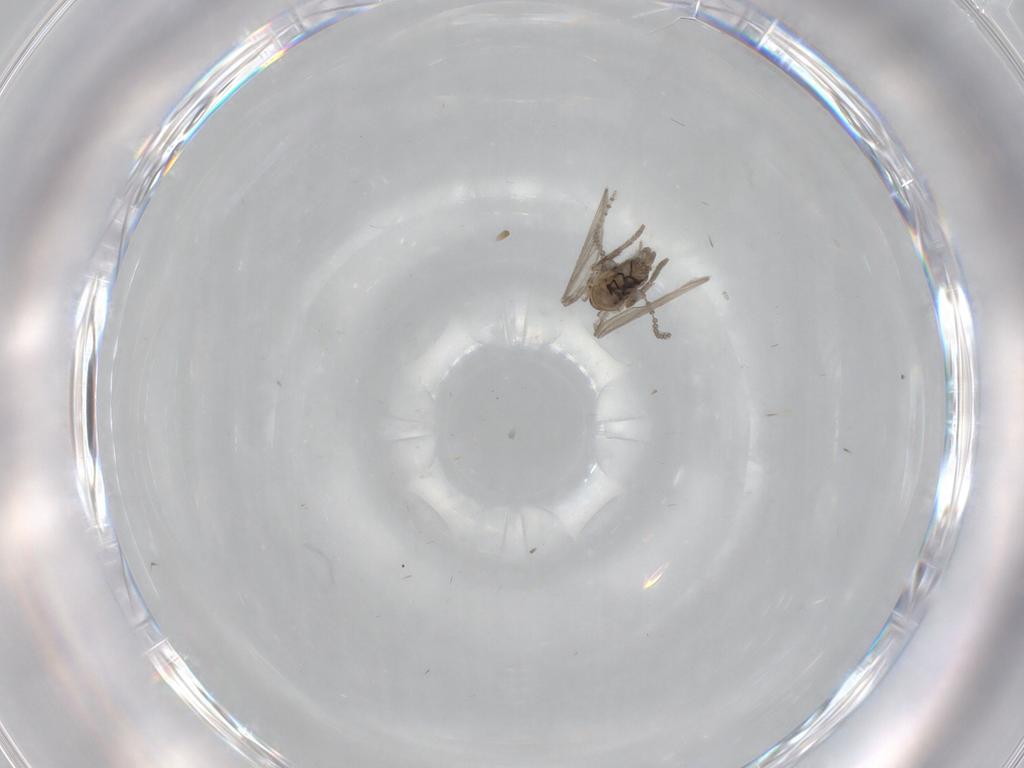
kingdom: Animalia
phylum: Arthropoda
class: Insecta
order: Diptera
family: Psychodidae
